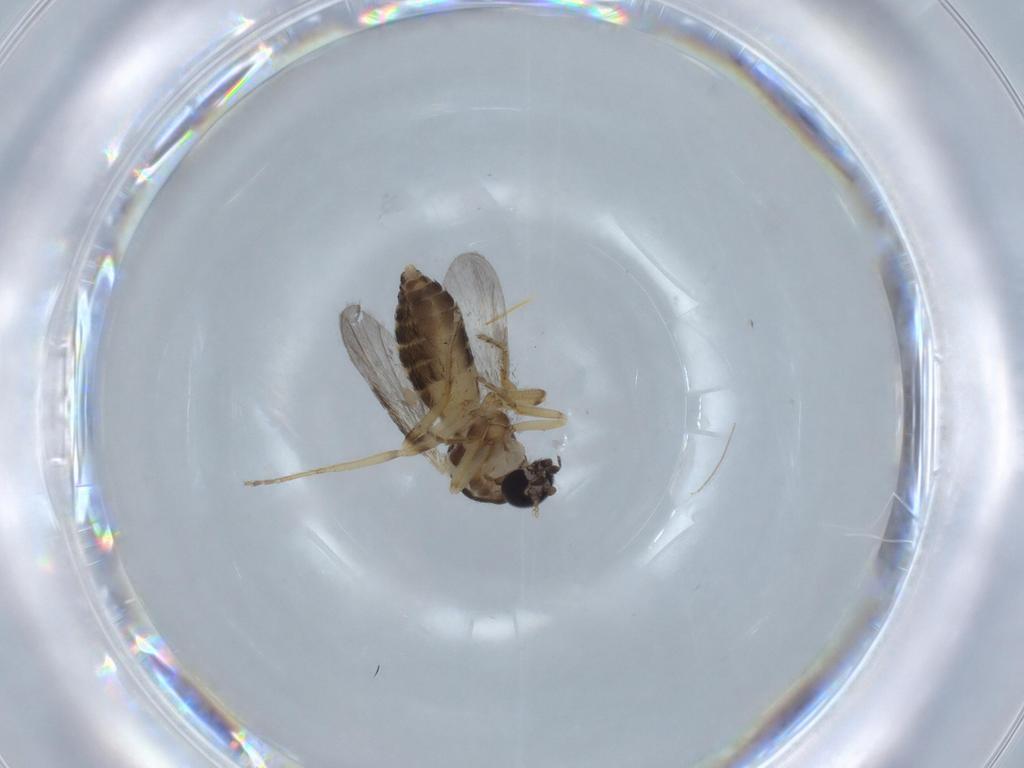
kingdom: Animalia
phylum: Arthropoda
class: Insecta
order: Diptera
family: Ceratopogonidae
